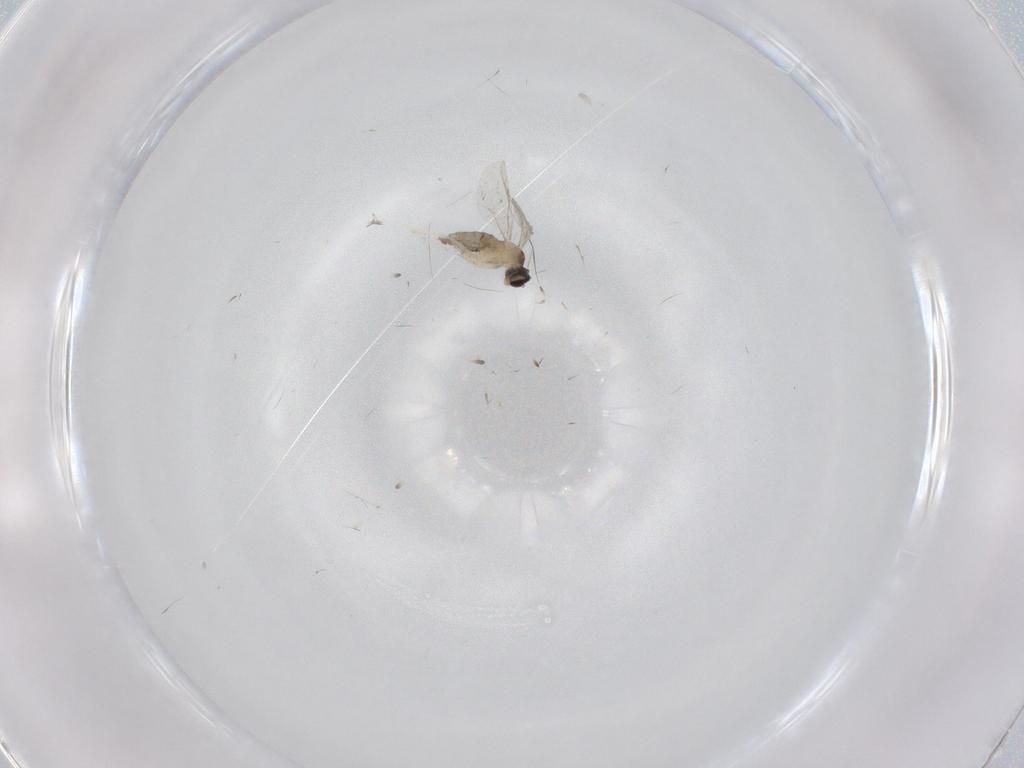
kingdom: Animalia
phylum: Arthropoda
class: Insecta
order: Diptera
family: Cecidomyiidae
